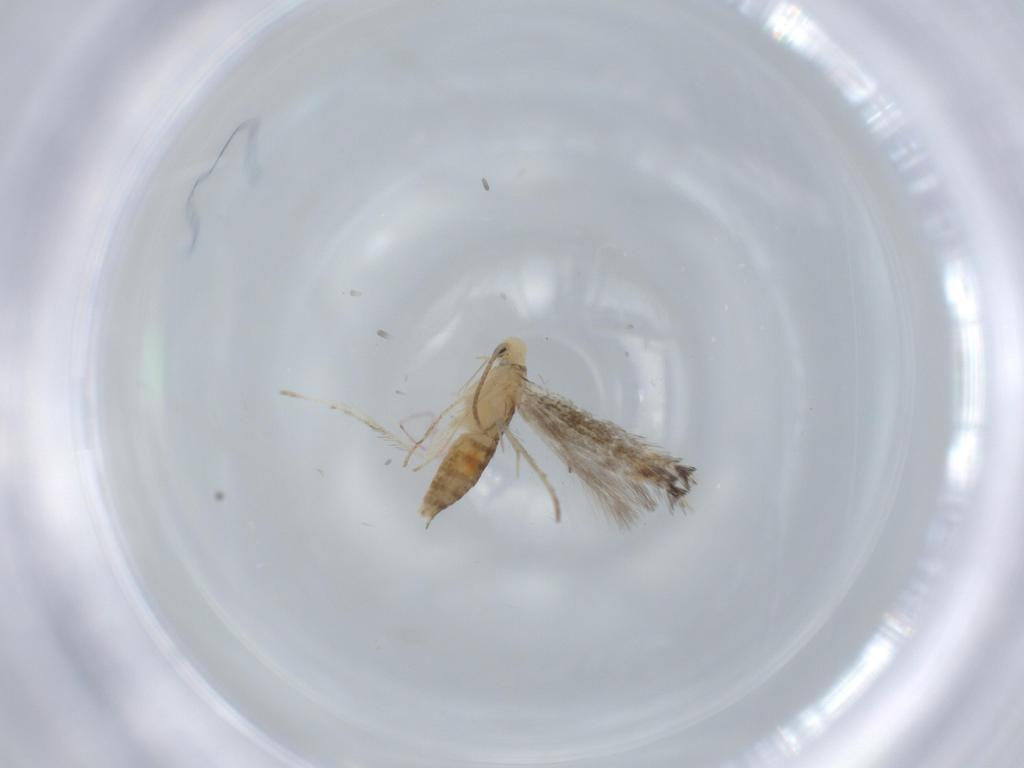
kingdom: Animalia
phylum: Arthropoda
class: Insecta
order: Lepidoptera
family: Gracillariidae
